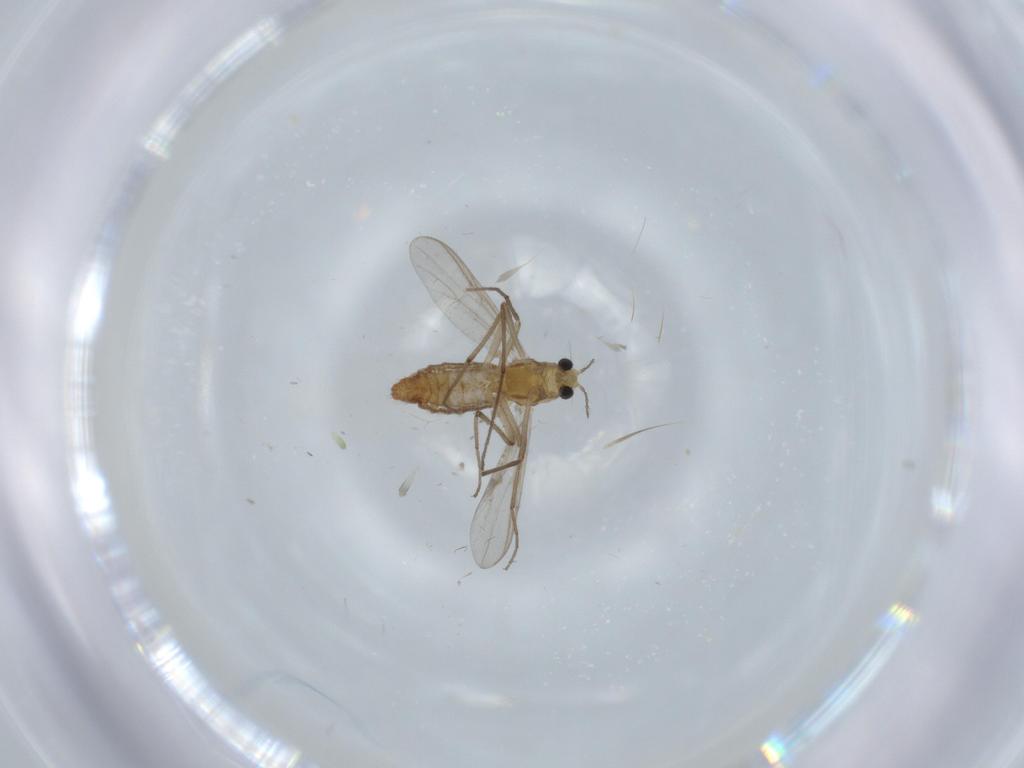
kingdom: Animalia
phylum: Arthropoda
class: Insecta
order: Diptera
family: Chironomidae
